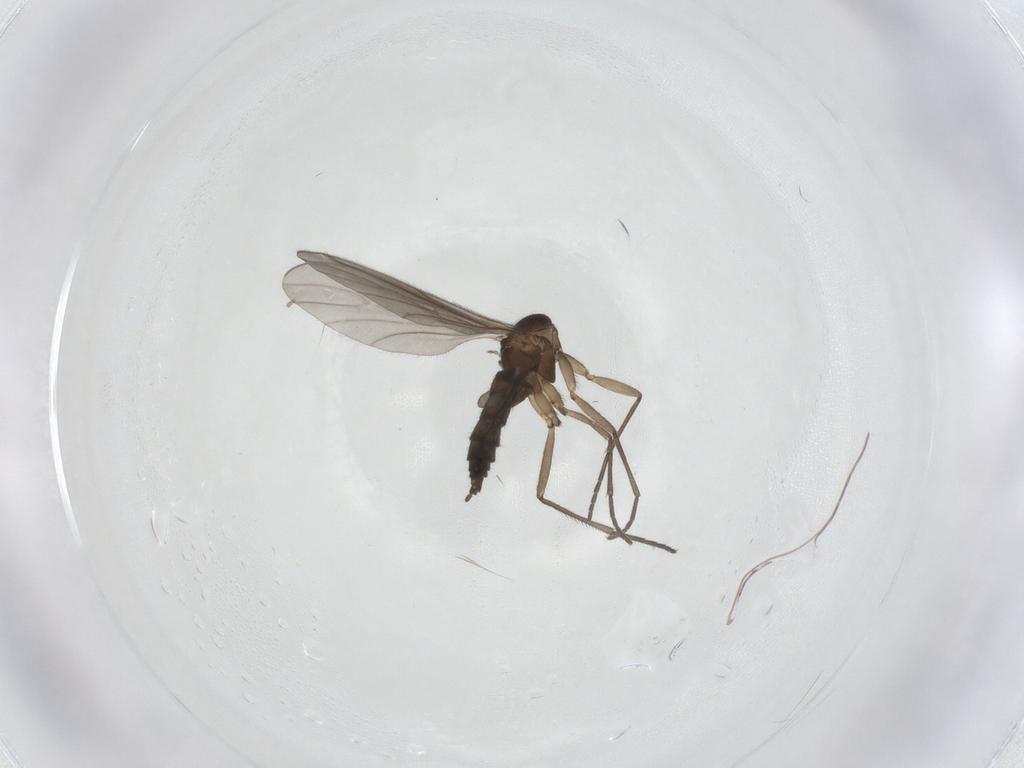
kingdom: Animalia
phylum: Arthropoda
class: Insecta
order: Diptera
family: Sciaridae
